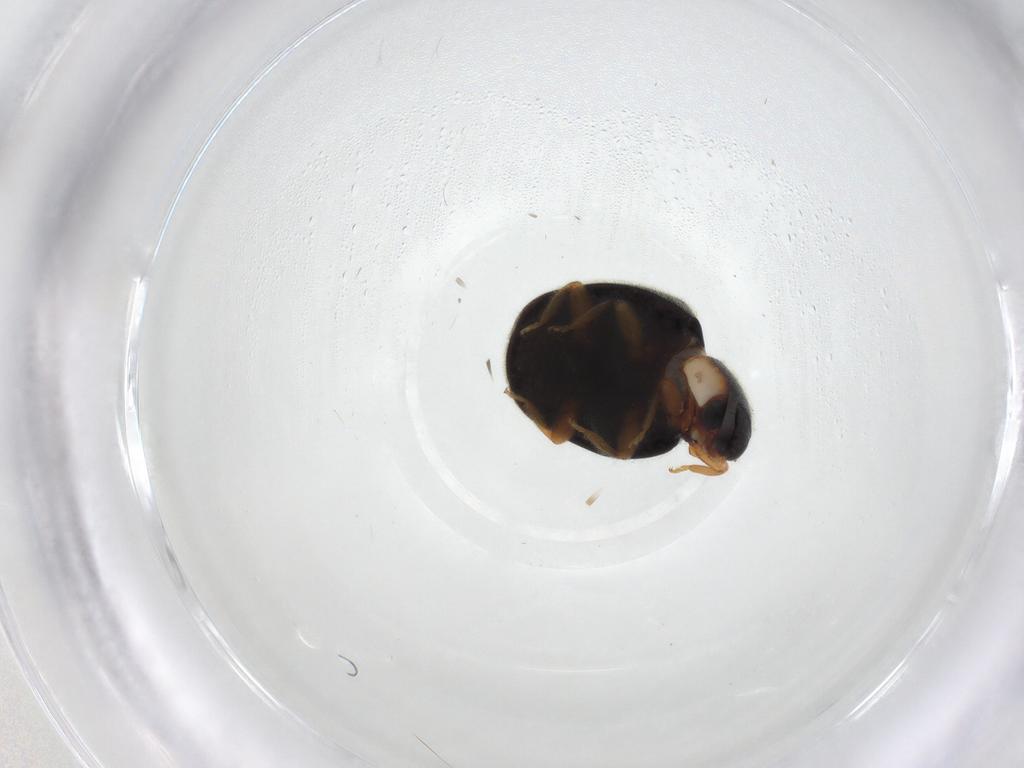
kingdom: Animalia
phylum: Arthropoda
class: Insecta
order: Coleoptera
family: Coccinellidae
